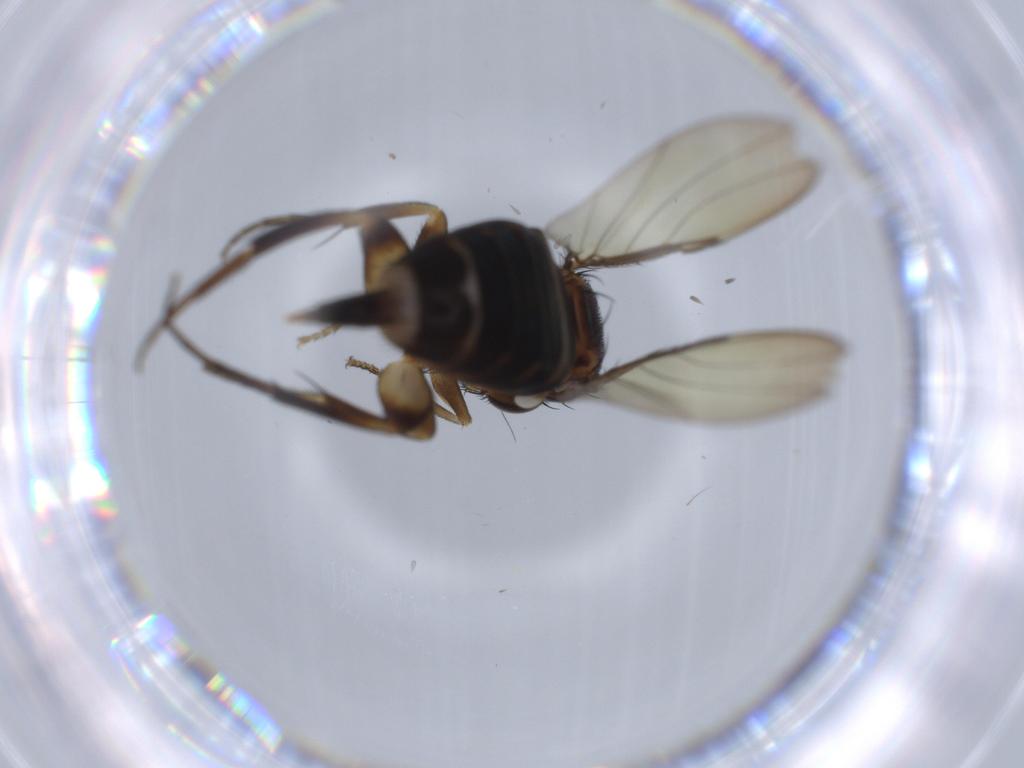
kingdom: Animalia
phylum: Arthropoda
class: Insecta
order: Diptera
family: Phoridae
